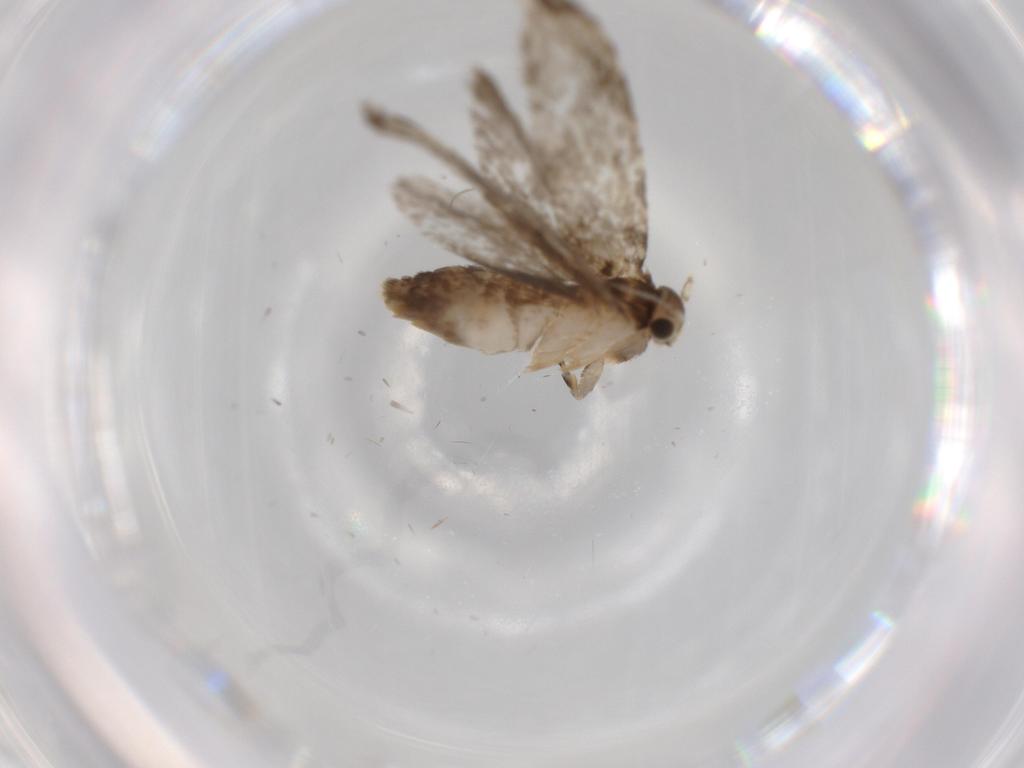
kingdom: Animalia
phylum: Arthropoda
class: Insecta
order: Lepidoptera
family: Tineidae
